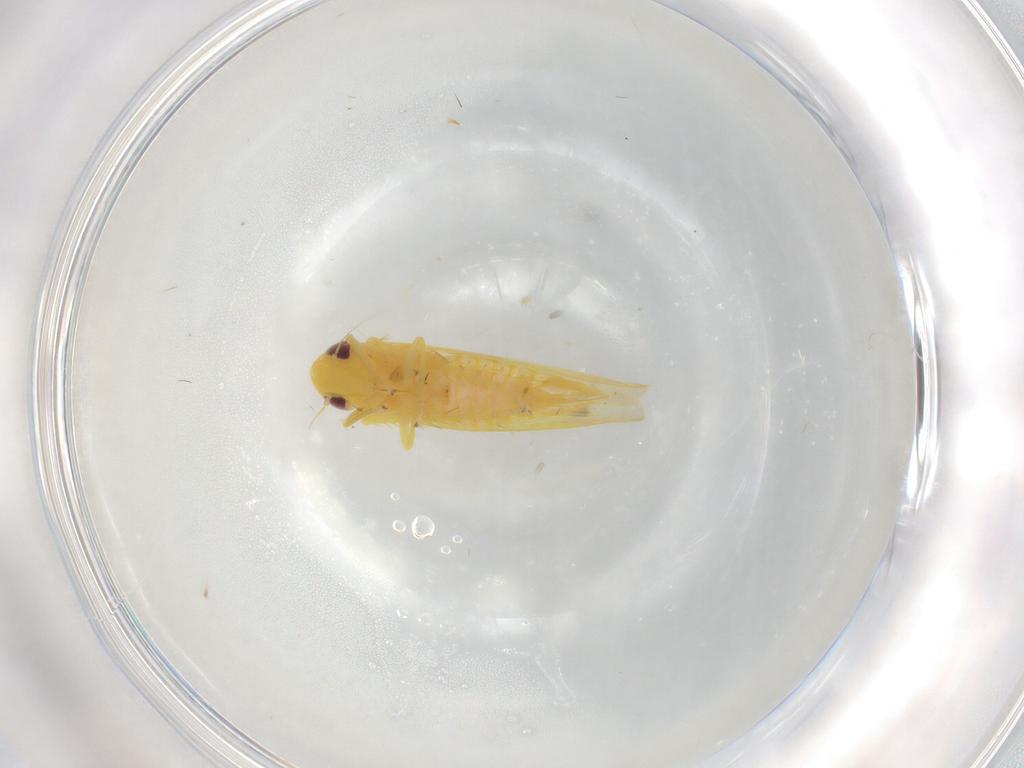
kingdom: Animalia
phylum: Arthropoda
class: Insecta
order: Hemiptera
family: Cicadellidae
